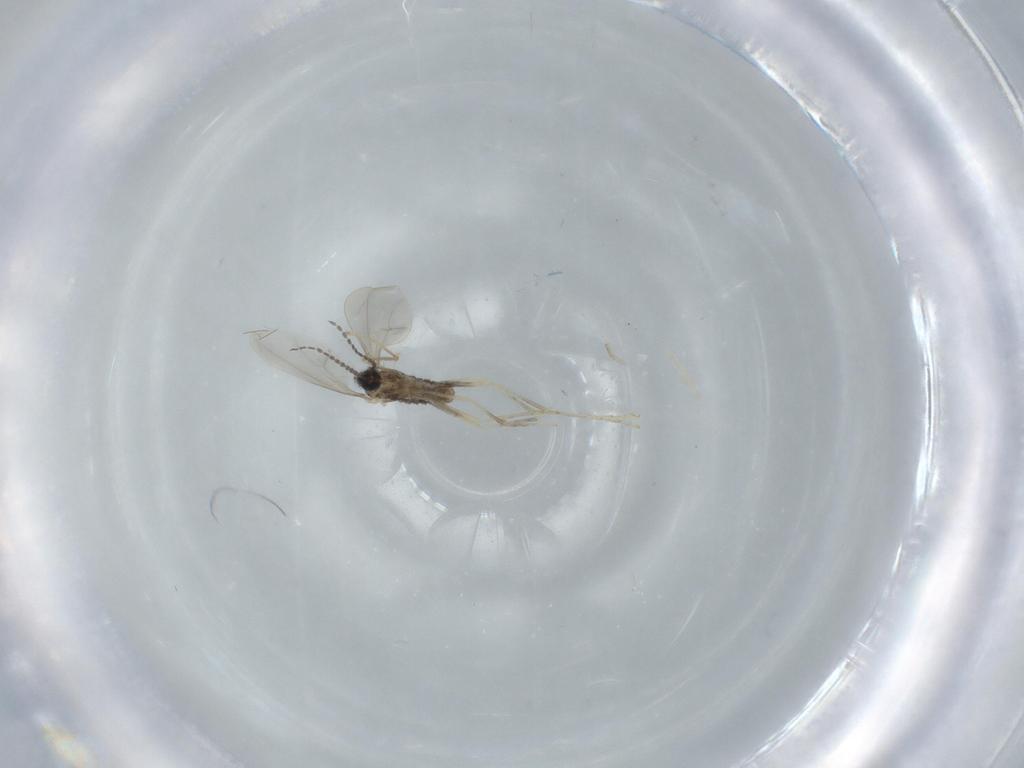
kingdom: Animalia
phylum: Arthropoda
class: Insecta
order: Diptera
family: Cecidomyiidae
